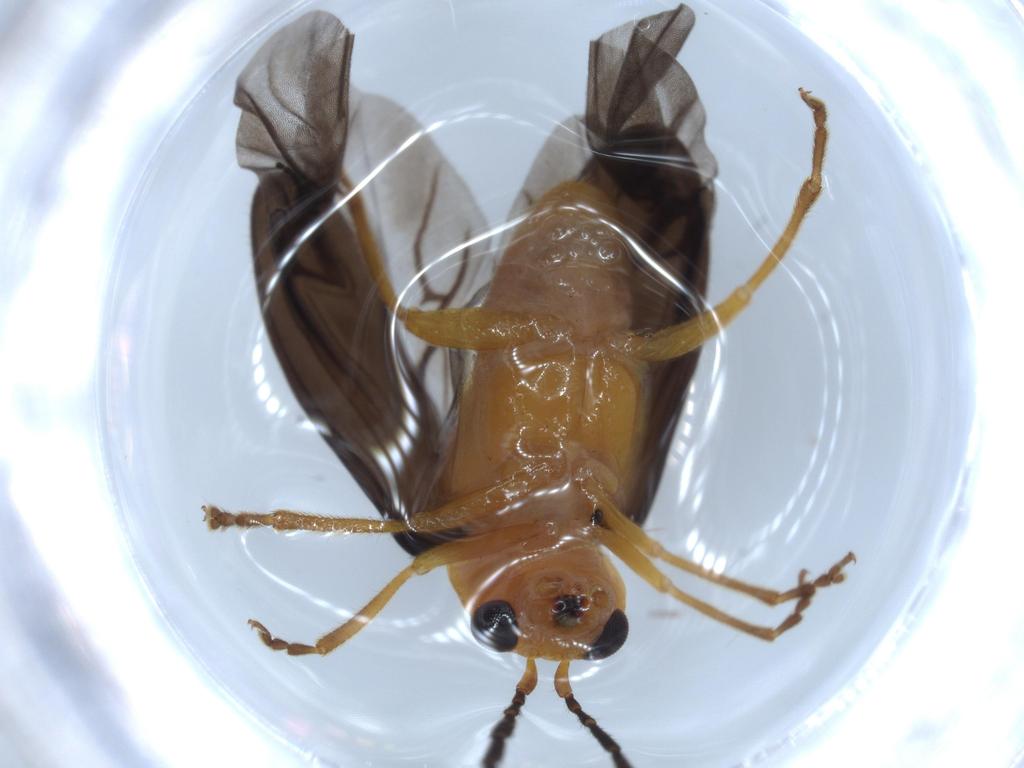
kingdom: Animalia
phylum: Arthropoda
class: Insecta
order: Coleoptera
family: Chrysomelidae
